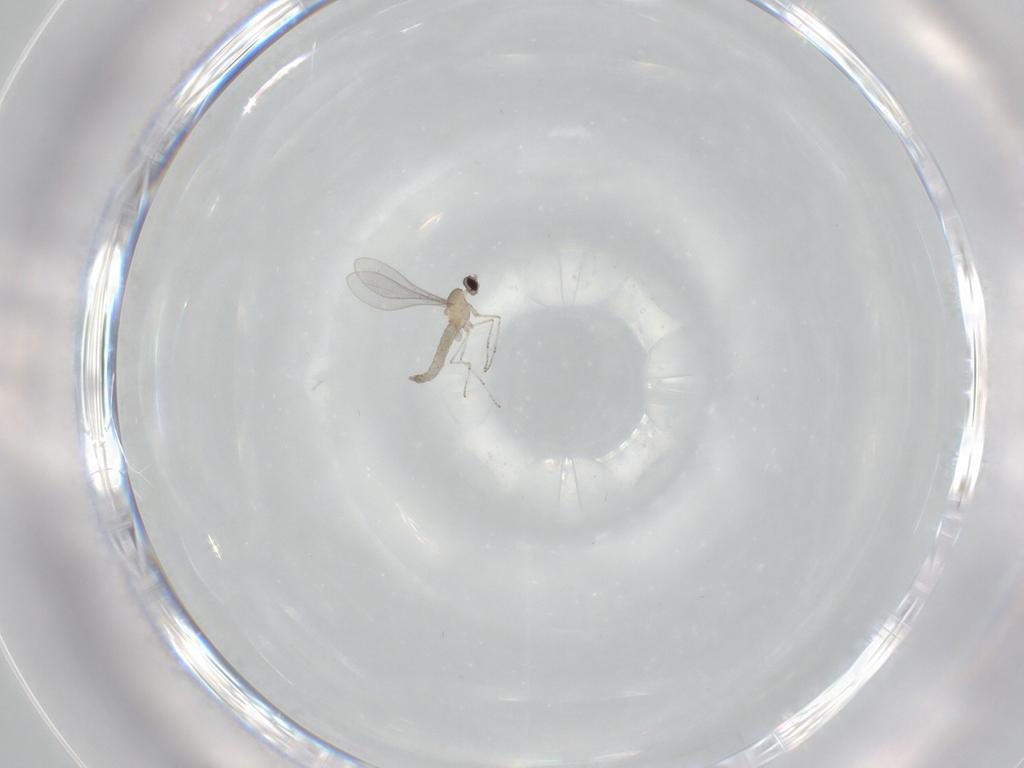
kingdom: Animalia
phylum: Arthropoda
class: Insecta
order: Diptera
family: Cecidomyiidae
